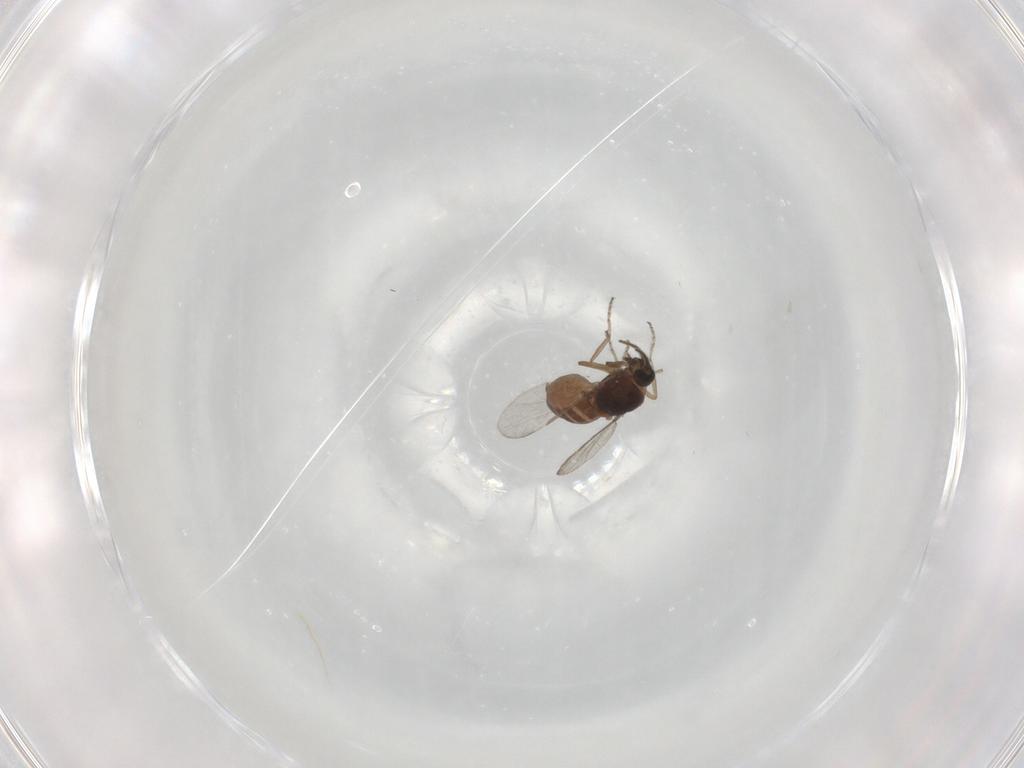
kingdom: Animalia
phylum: Arthropoda
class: Insecta
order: Diptera
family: Ceratopogonidae
